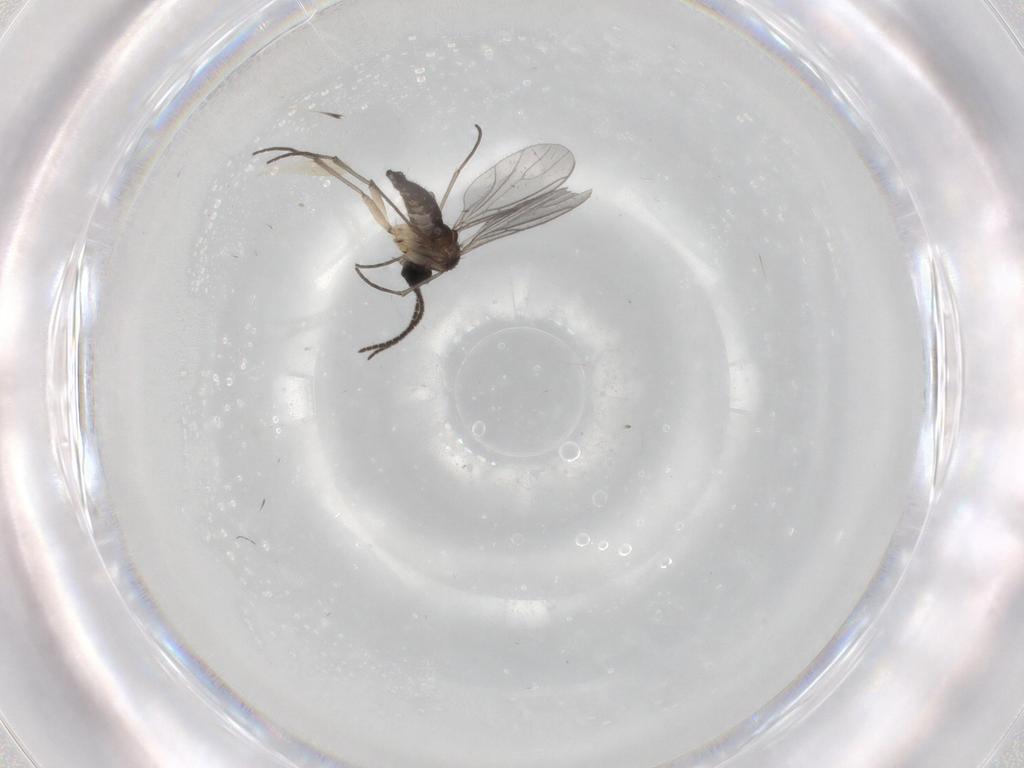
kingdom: Animalia
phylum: Arthropoda
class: Insecta
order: Diptera
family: Sciaridae
